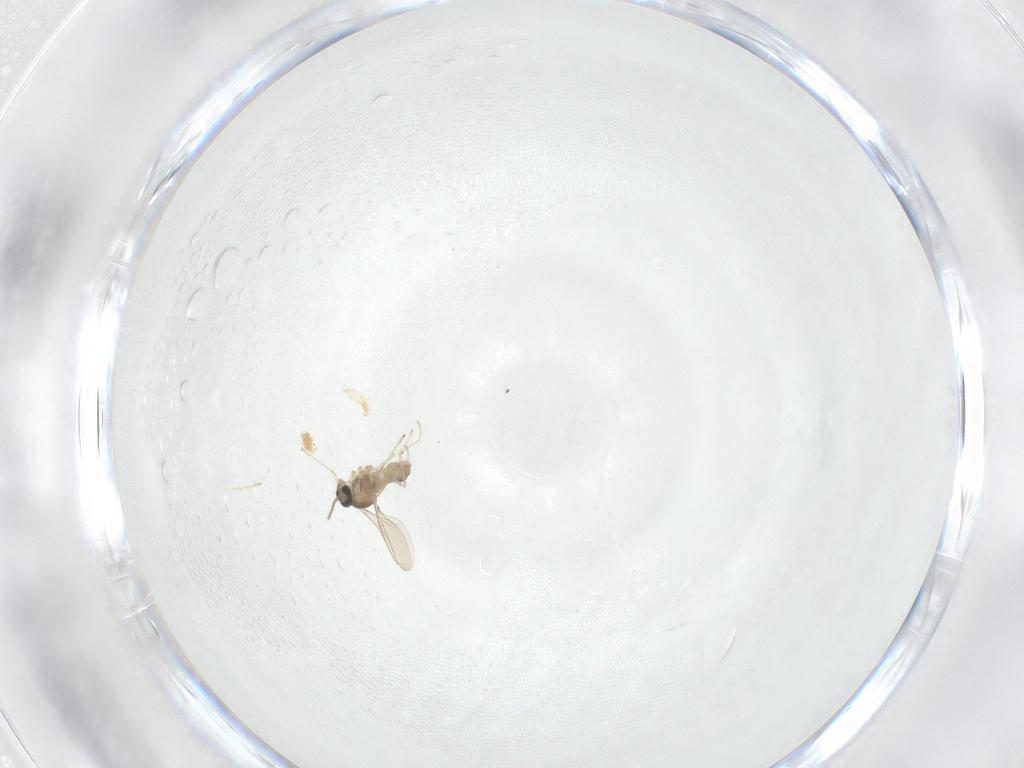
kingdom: Animalia
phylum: Arthropoda
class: Insecta
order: Diptera
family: Cecidomyiidae
